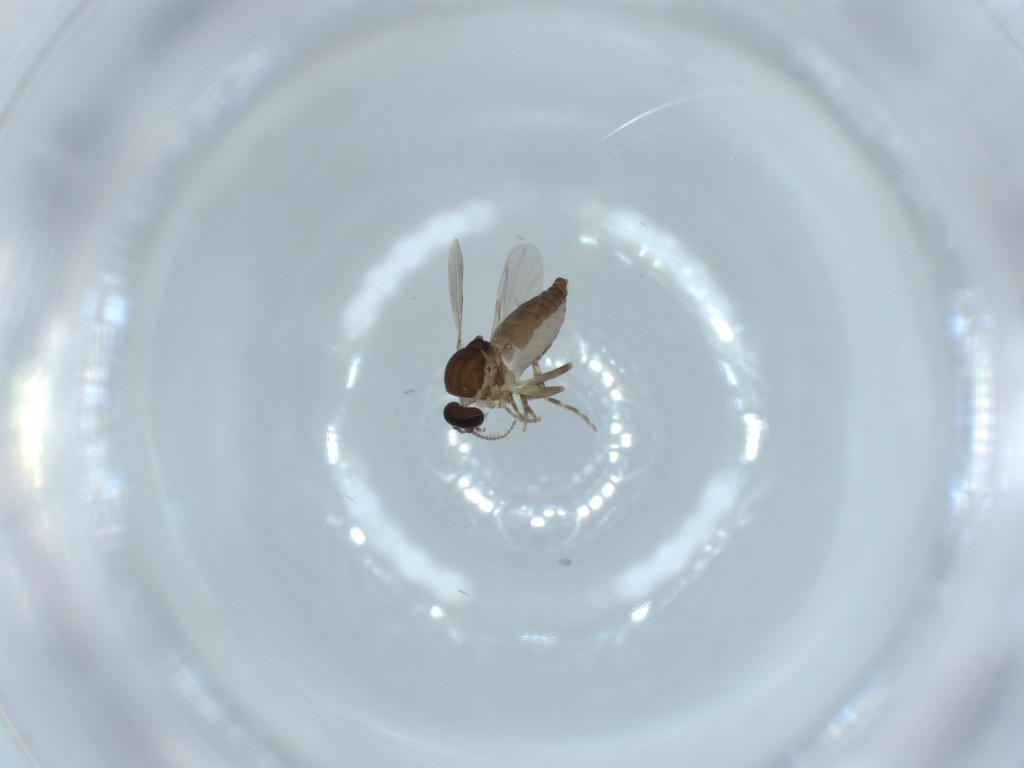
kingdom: Animalia
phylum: Arthropoda
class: Insecta
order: Diptera
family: Ceratopogonidae
